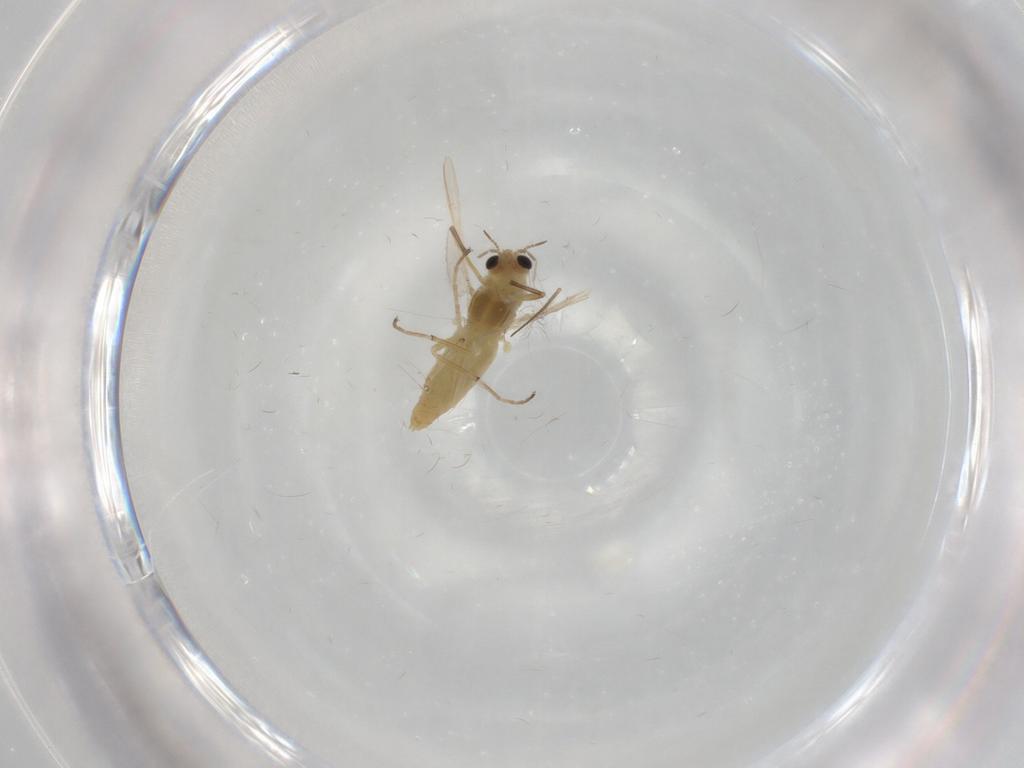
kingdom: Animalia
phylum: Arthropoda
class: Insecta
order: Diptera
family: Chironomidae
